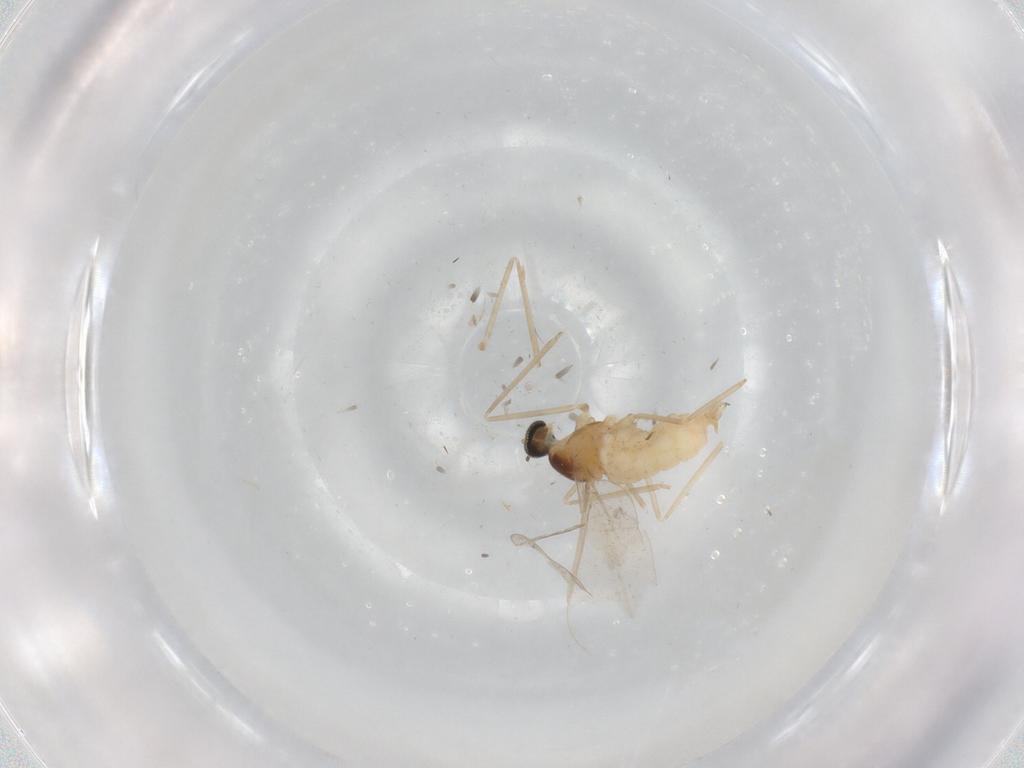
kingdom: Animalia
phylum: Arthropoda
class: Insecta
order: Diptera
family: Cecidomyiidae
